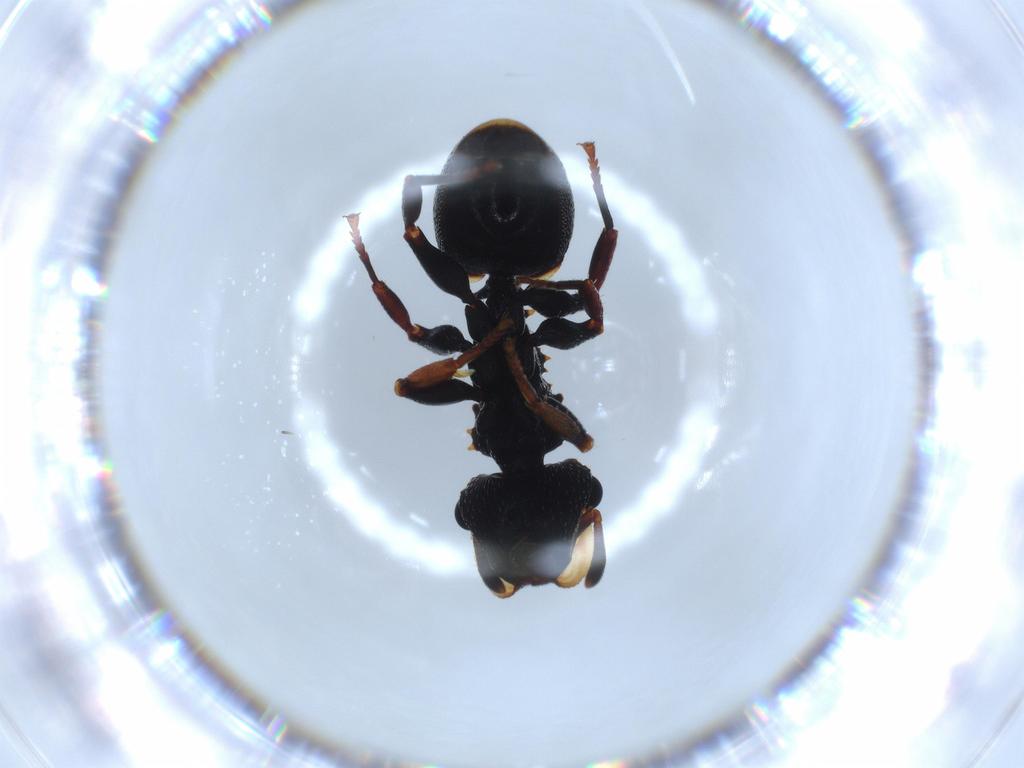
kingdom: Animalia
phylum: Arthropoda
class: Insecta
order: Hymenoptera
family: Formicidae
